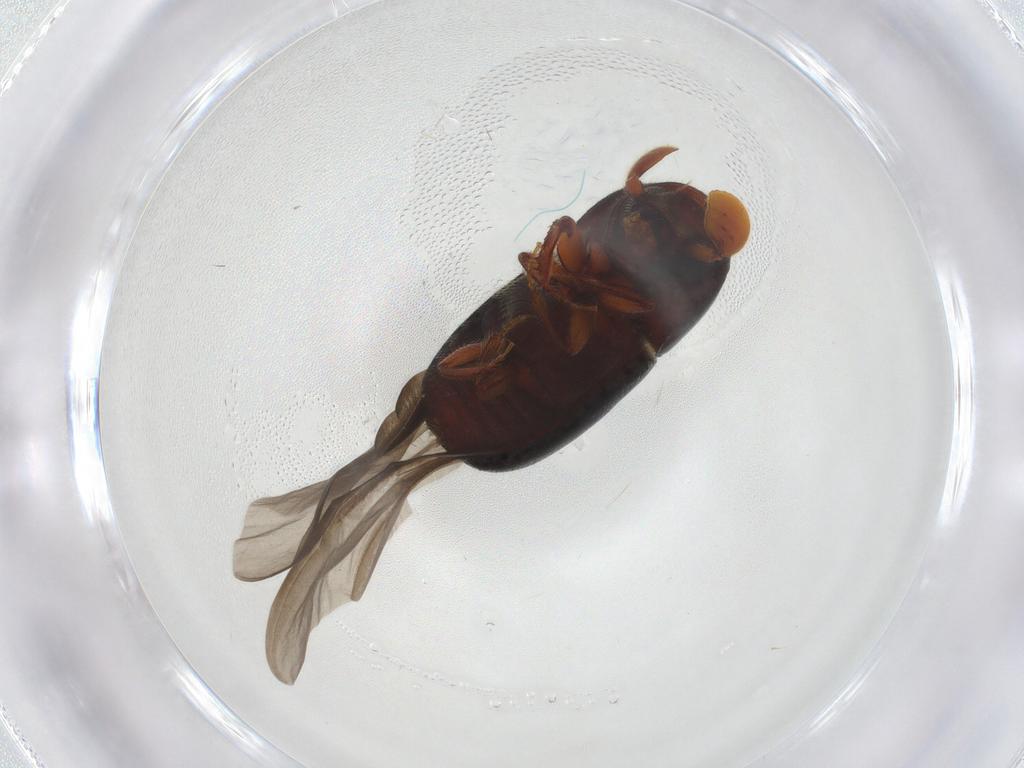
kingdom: Animalia
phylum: Arthropoda
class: Insecta
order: Coleoptera
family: Curculionidae
